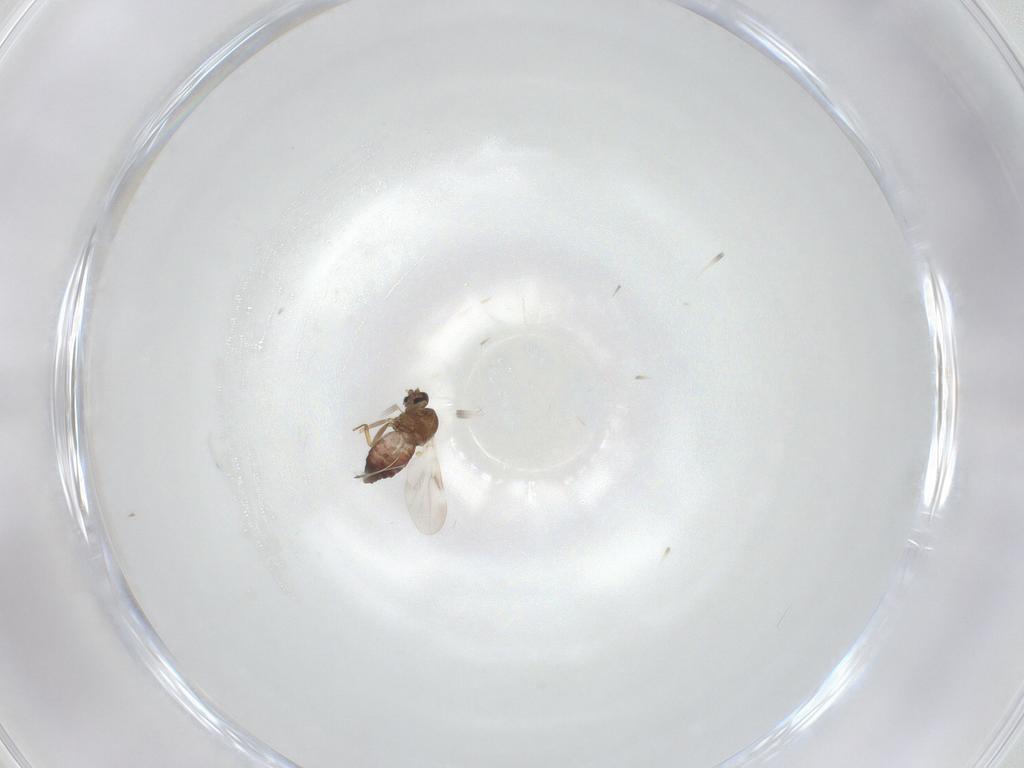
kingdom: Animalia
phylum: Arthropoda
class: Insecta
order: Diptera
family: Ceratopogonidae
